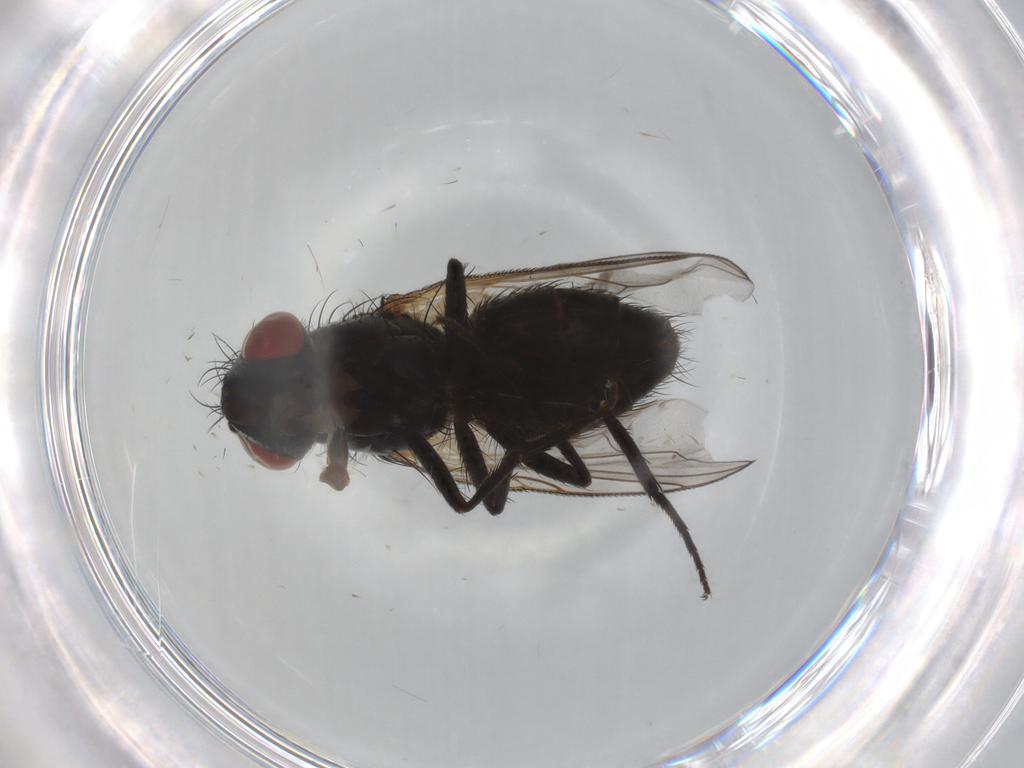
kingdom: Animalia
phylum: Arthropoda
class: Insecta
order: Diptera
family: Sarcophagidae
